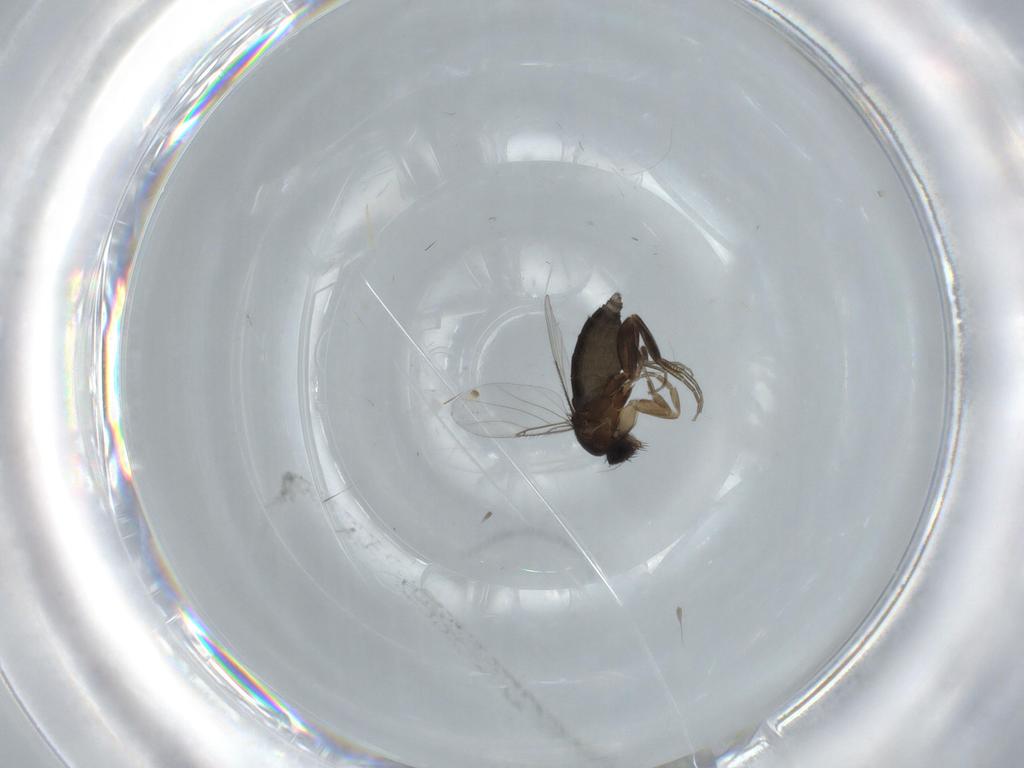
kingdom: Animalia
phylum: Arthropoda
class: Insecta
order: Diptera
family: Phoridae
